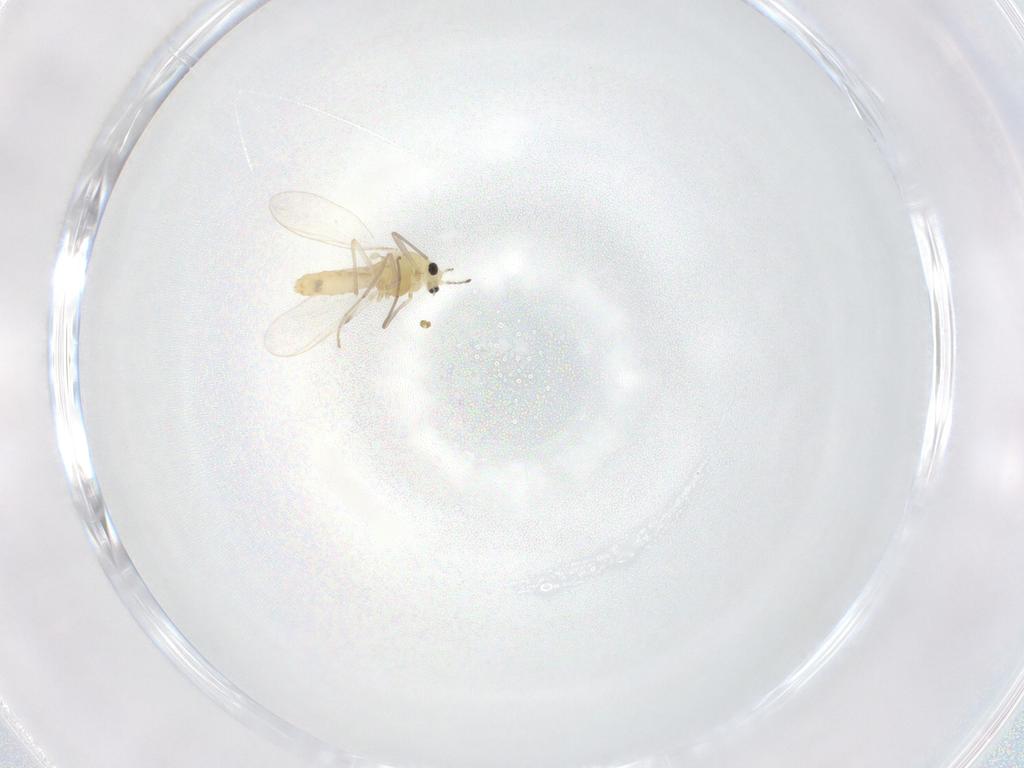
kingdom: Animalia
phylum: Arthropoda
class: Insecta
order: Diptera
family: Chironomidae
